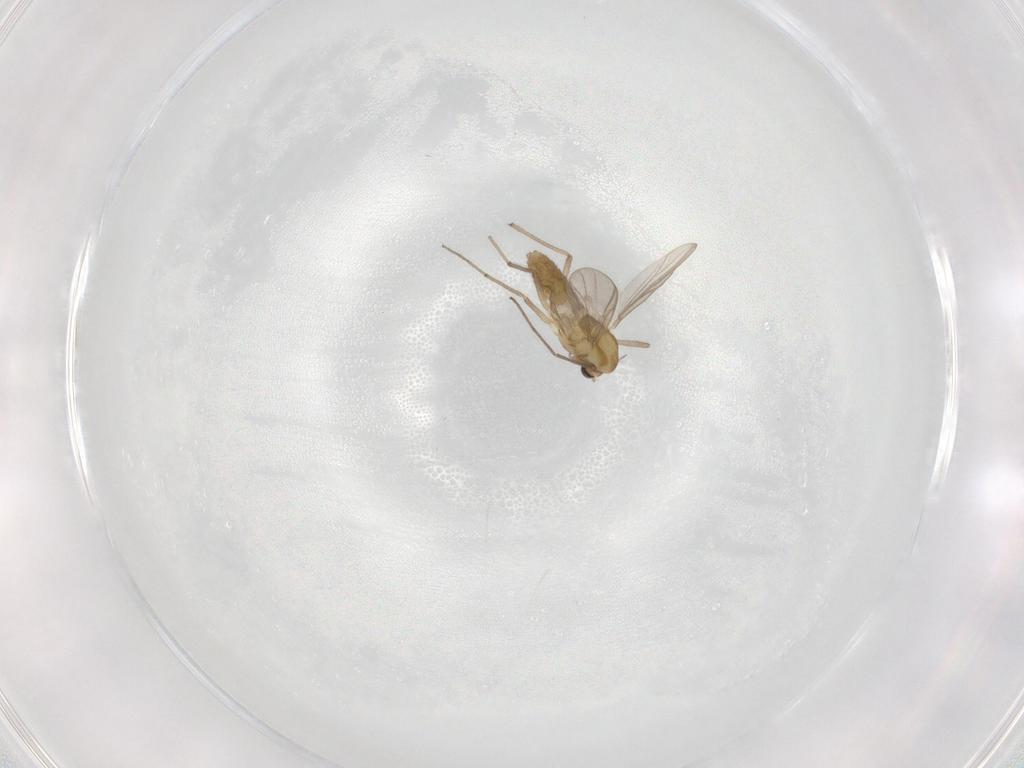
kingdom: Animalia
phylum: Arthropoda
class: Insecta
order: Diptera
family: Chironomidae
